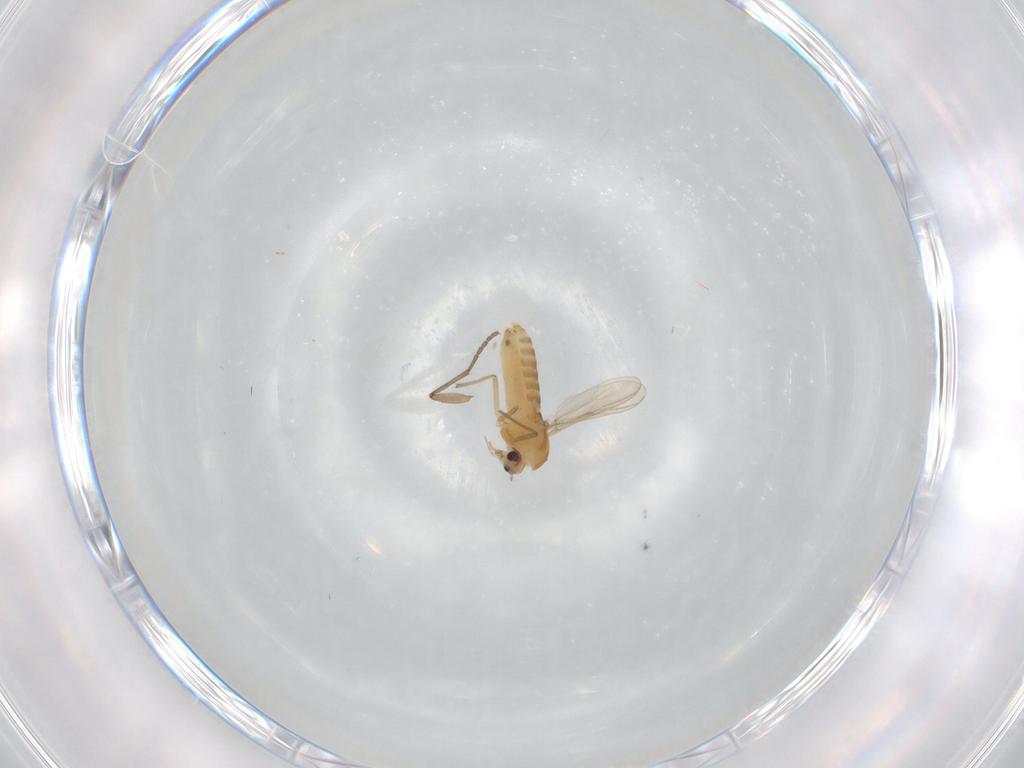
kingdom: Animalia
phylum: Arthropoda
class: Insecta
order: Diptera
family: Chironomidae
